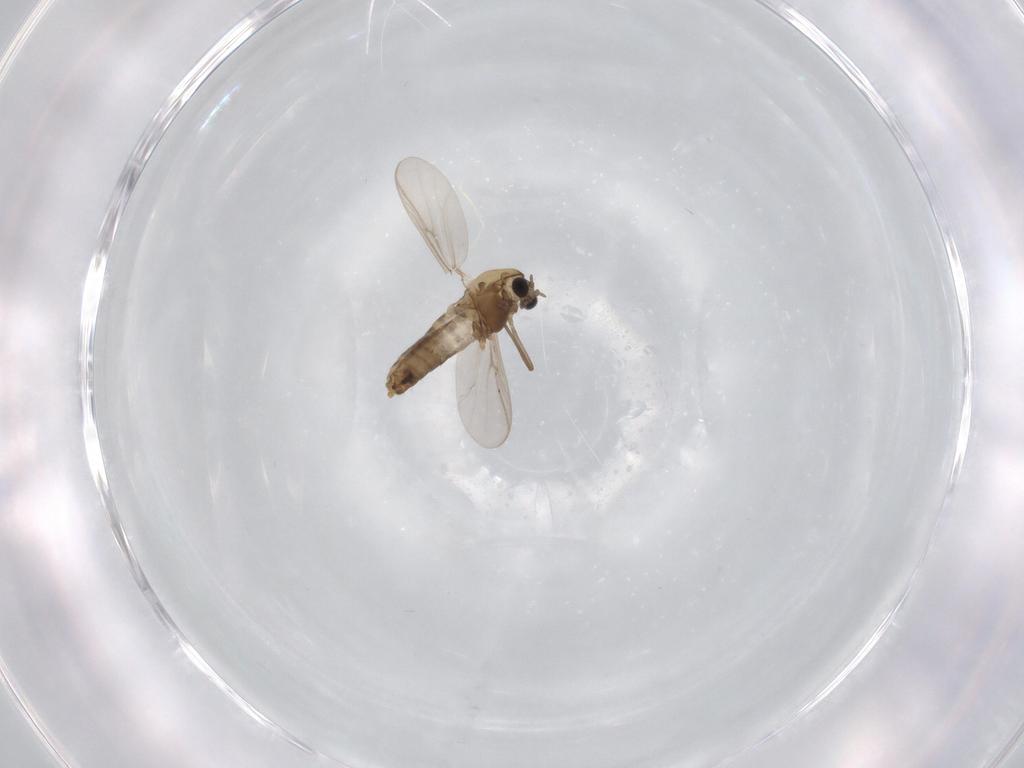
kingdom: Animalia
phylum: Arthropoda
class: Insecta
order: Diptera
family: Chironomidae
